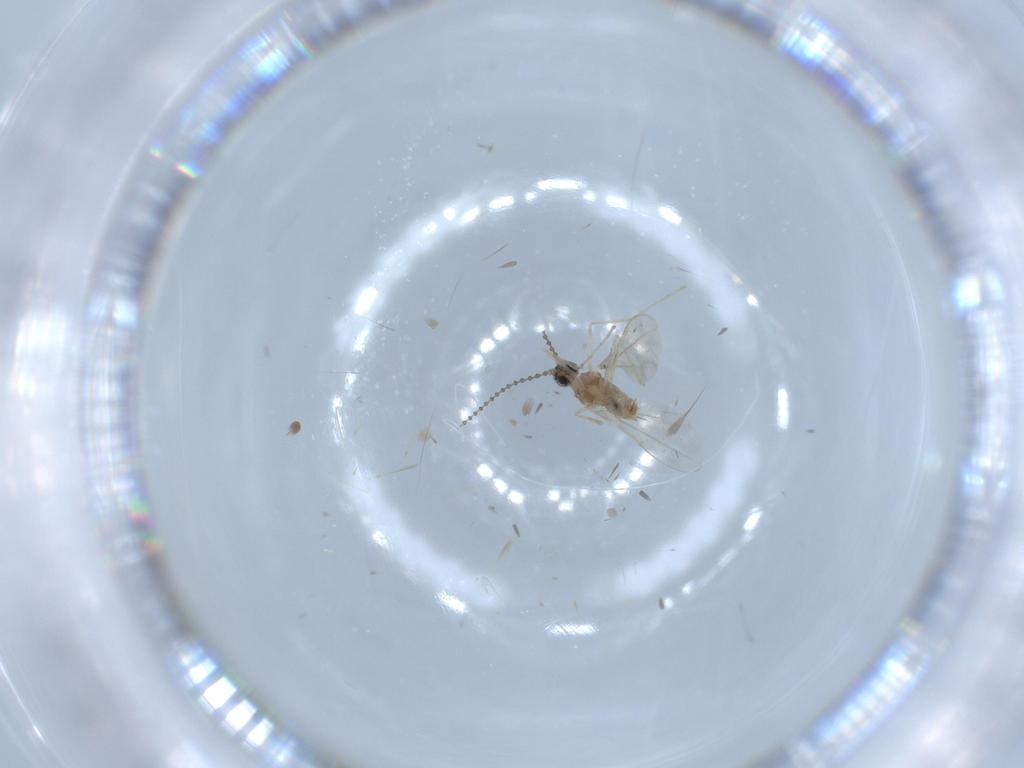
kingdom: Animalia
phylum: Arthropoda
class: Insecta
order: Diptera
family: Cecidomyiidae
